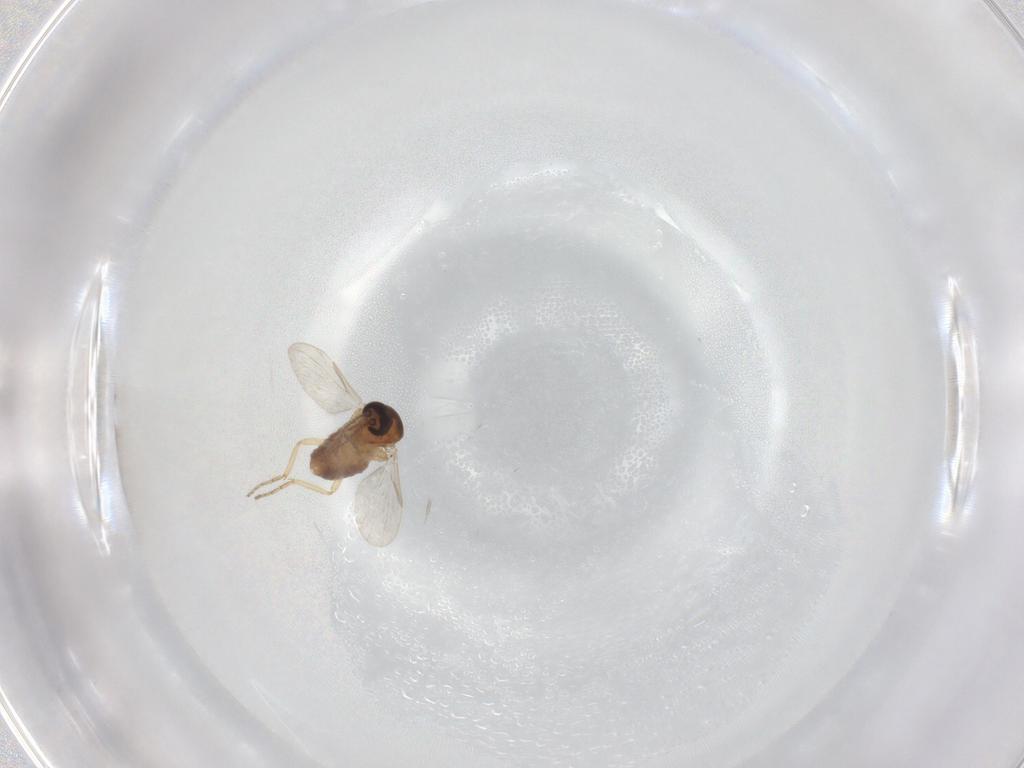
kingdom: Animalia
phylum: Arthropoda
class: Insecta
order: Diptera
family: Ceratopogonidae
